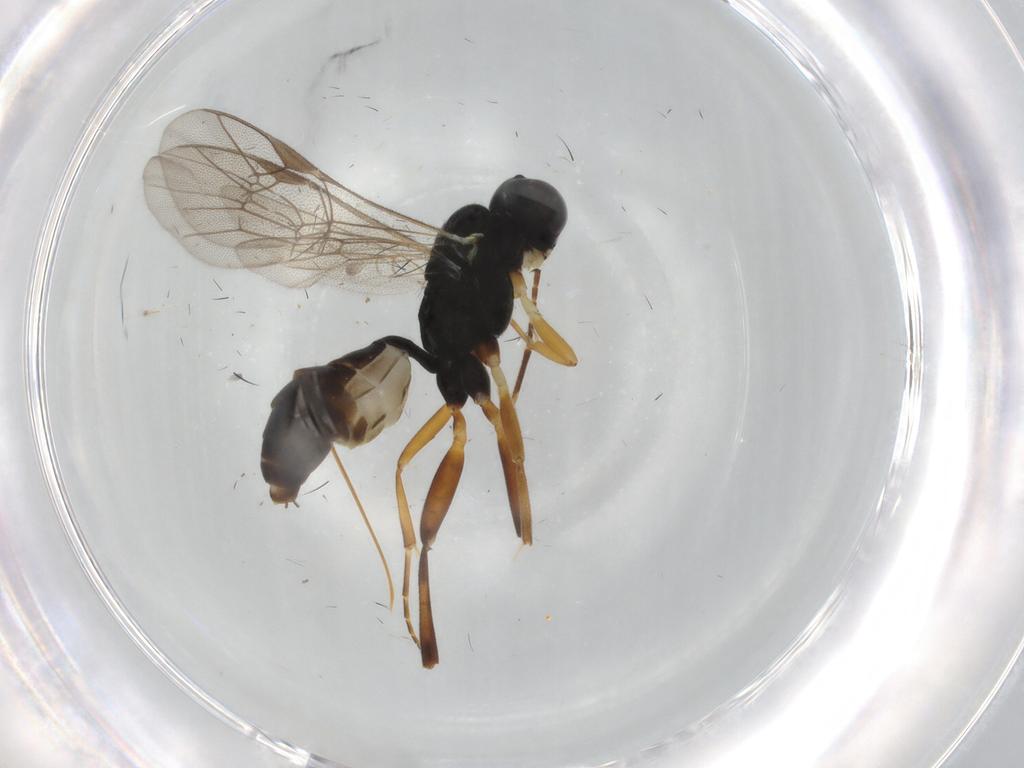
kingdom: Animalia
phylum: Arthropoda
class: Insecta
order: Hymenoptera
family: Ichneumonidae
